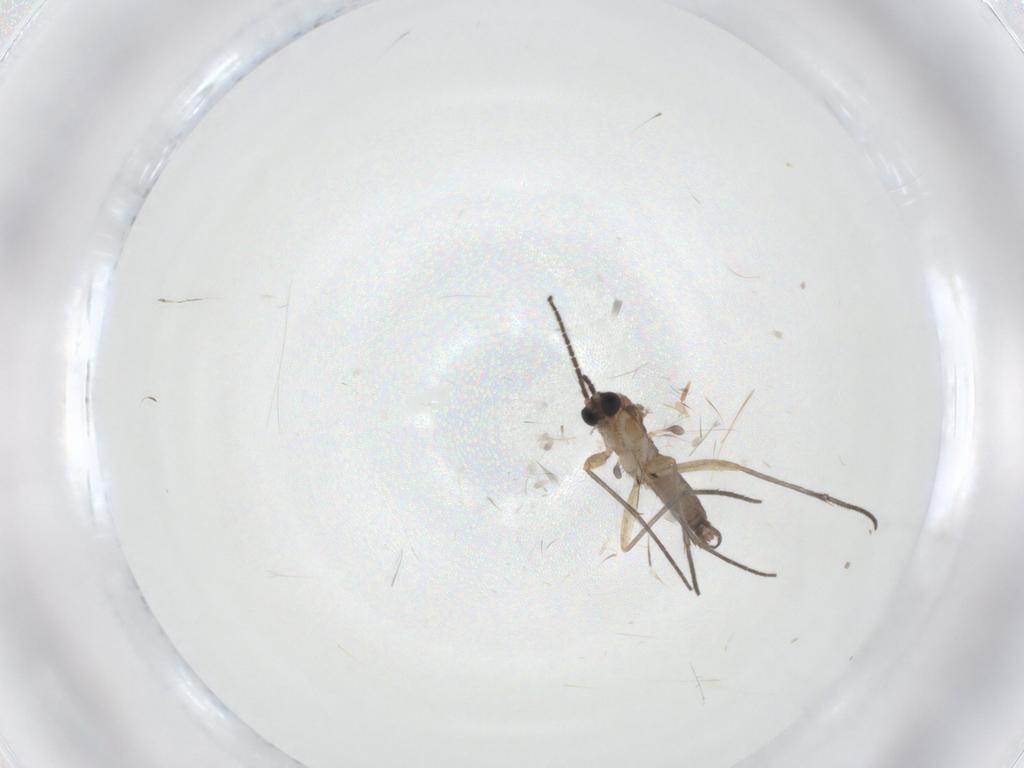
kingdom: Animalia
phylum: Arthropoda
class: Insecta
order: Diptera
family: Sciaridae
